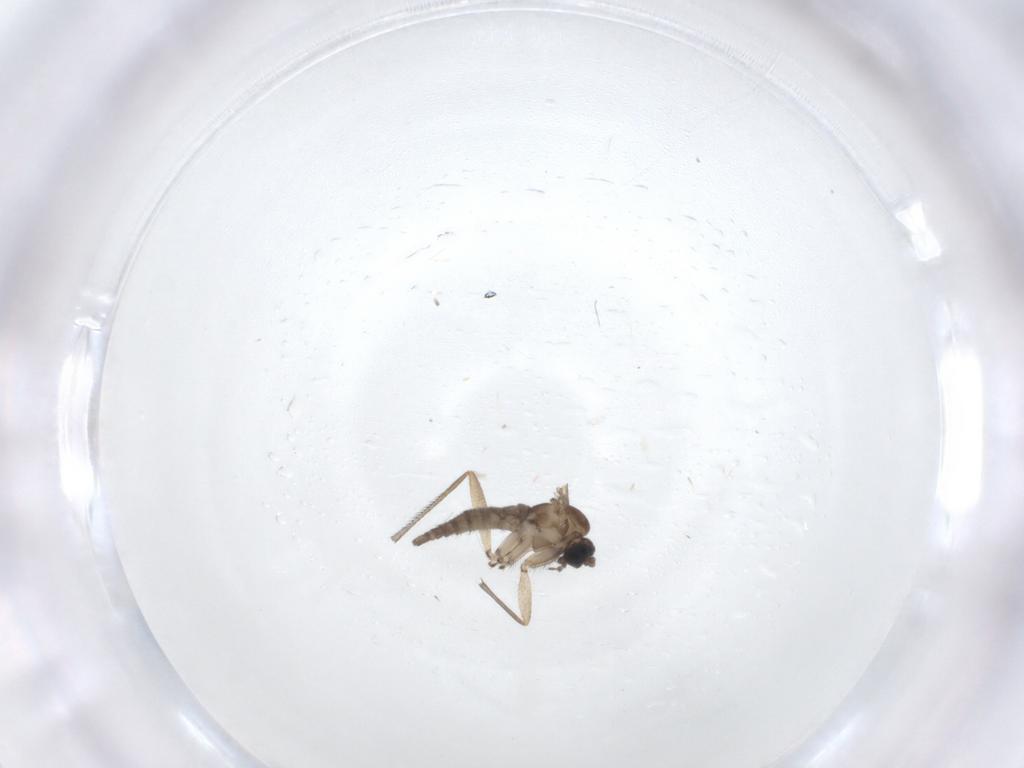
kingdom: Animalia
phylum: Arthropoda
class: Insecta
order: Diptera
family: Sciaridae
